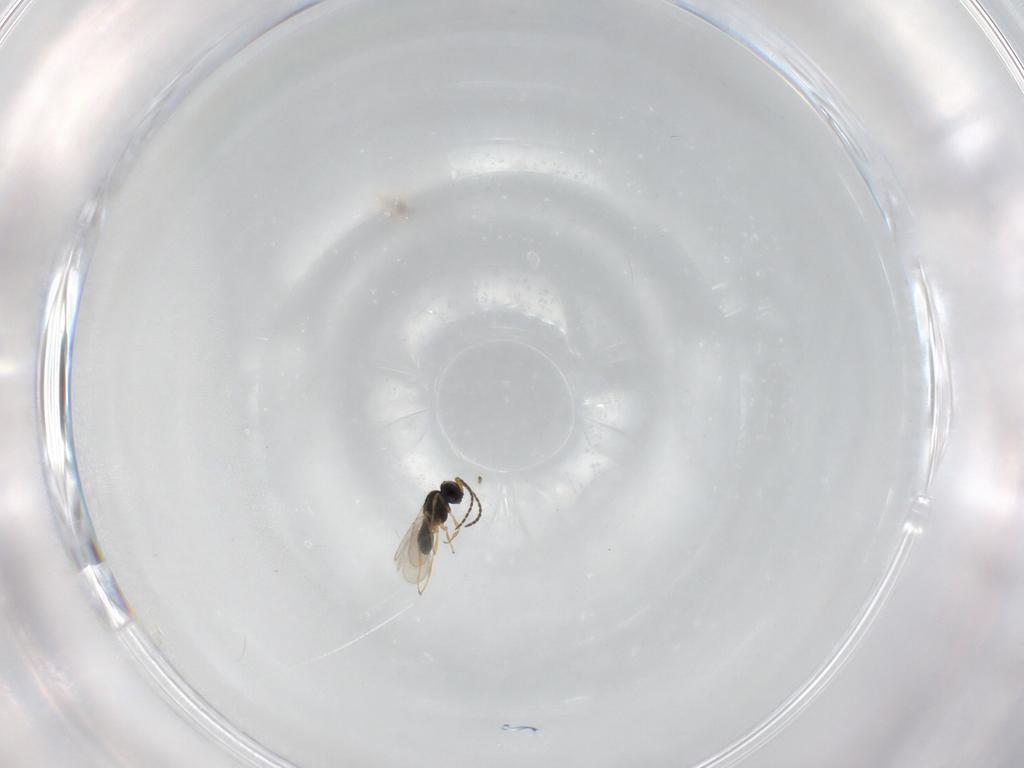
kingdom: Animalia
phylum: Arthropoda
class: Insecta
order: Hymenoptera
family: Scelionidae
